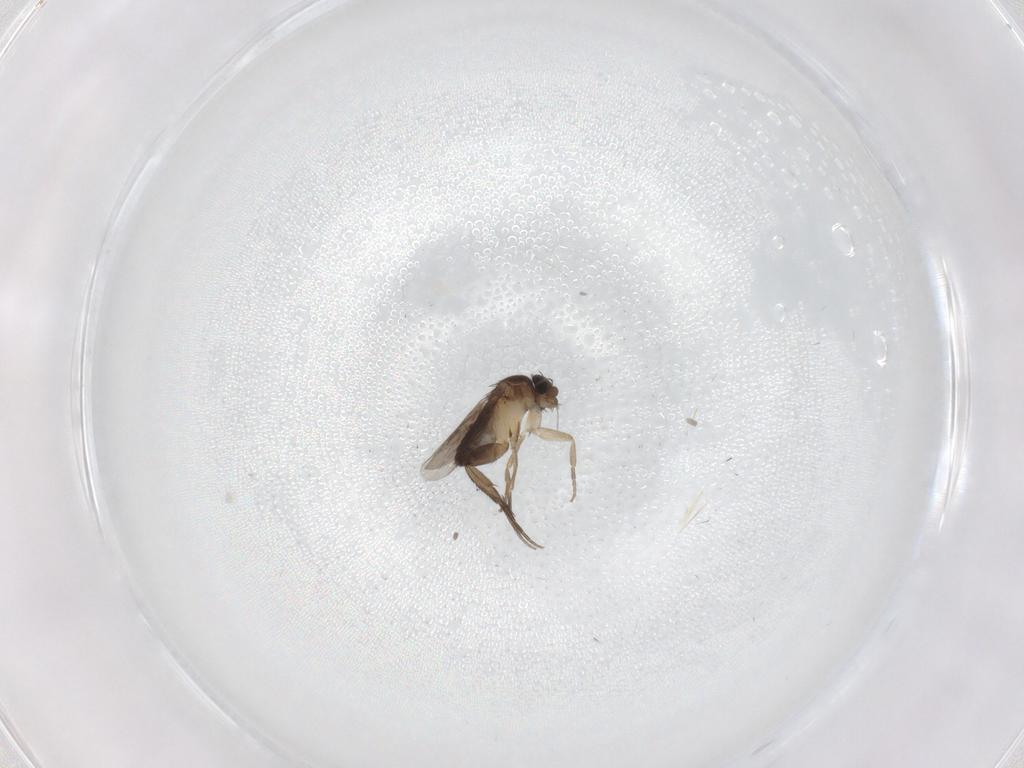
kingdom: Animalia
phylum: Arthropoda
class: Insecta
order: Diptera
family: Phoridae
